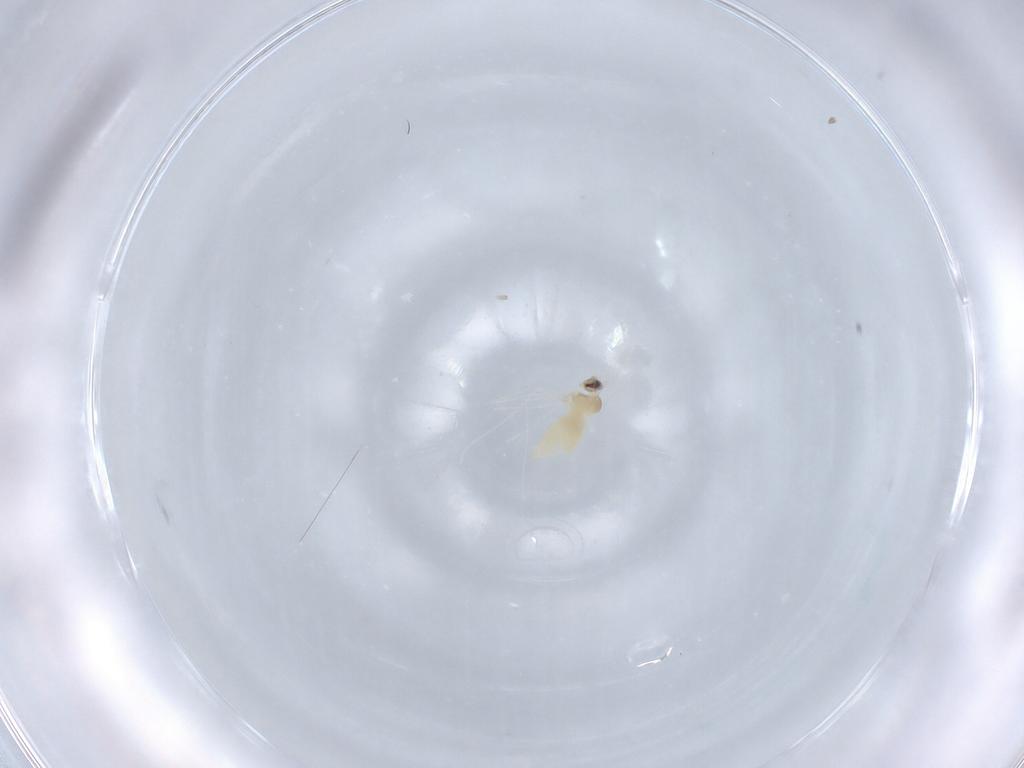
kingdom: Animalia
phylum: Arthropoda
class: Insecta
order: Diptera
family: Cecidomyiidae
